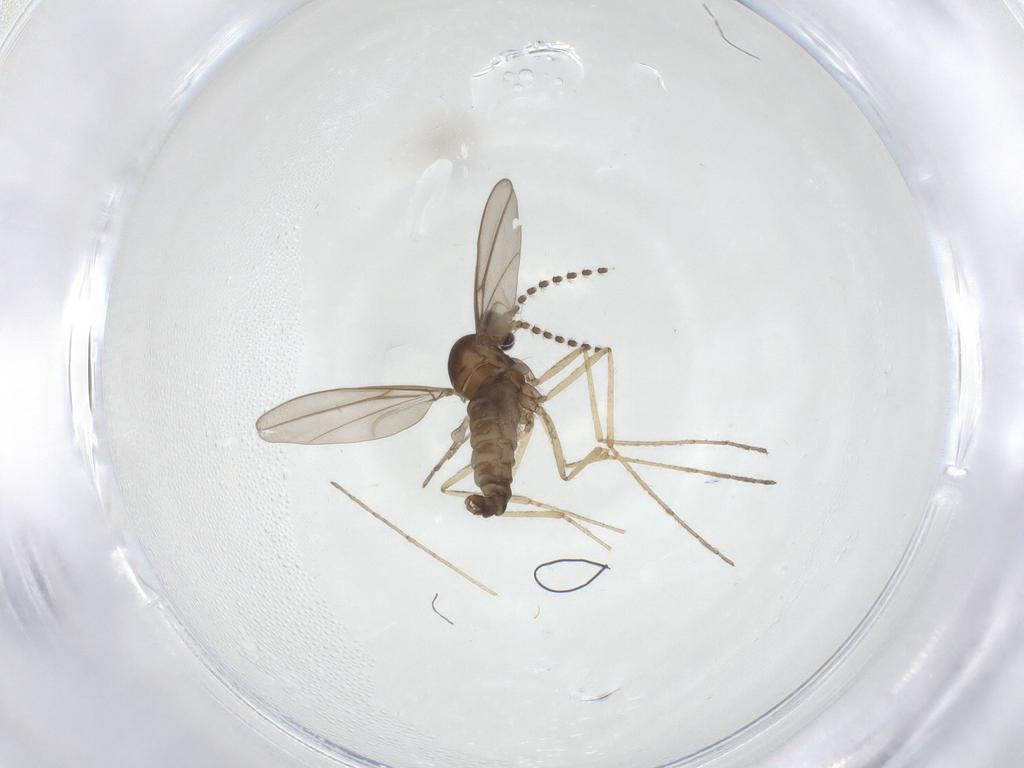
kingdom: Animalia
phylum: Arthropoda
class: Insecta
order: Diptera
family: Cecidomyiidae
